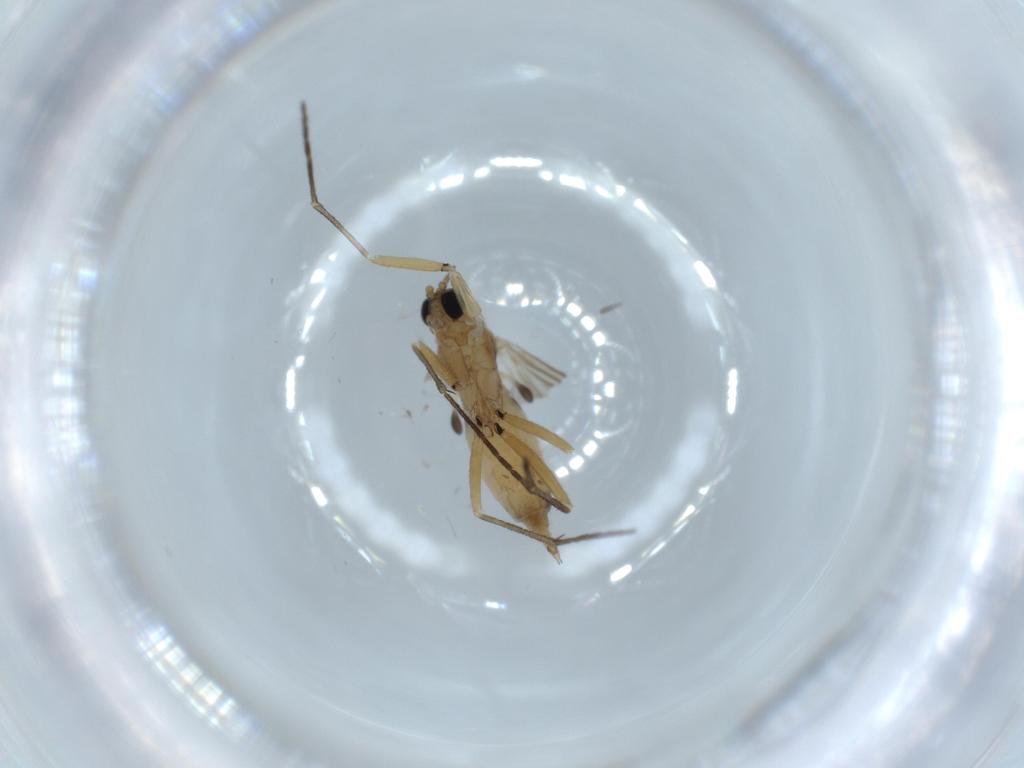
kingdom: Animalia
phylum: Arthropoda
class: Insecta
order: Diptera
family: Sciaridae
